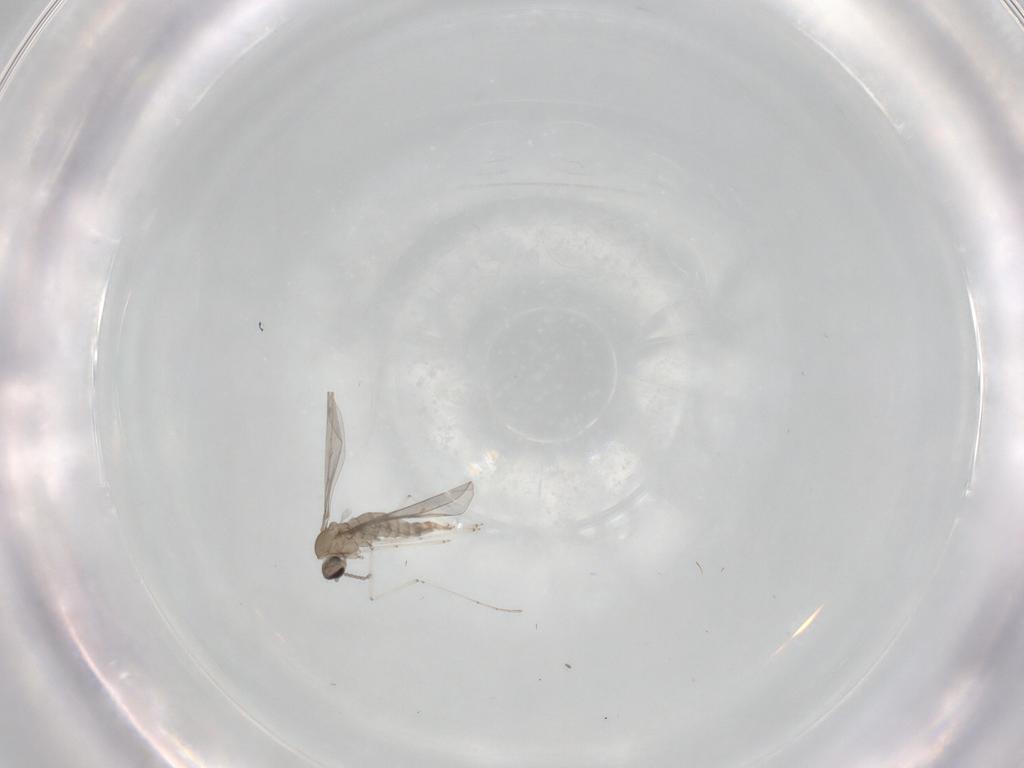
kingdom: Animalia
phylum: Arthropoda
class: Insecta
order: Diptera
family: Cecidomyiidae
